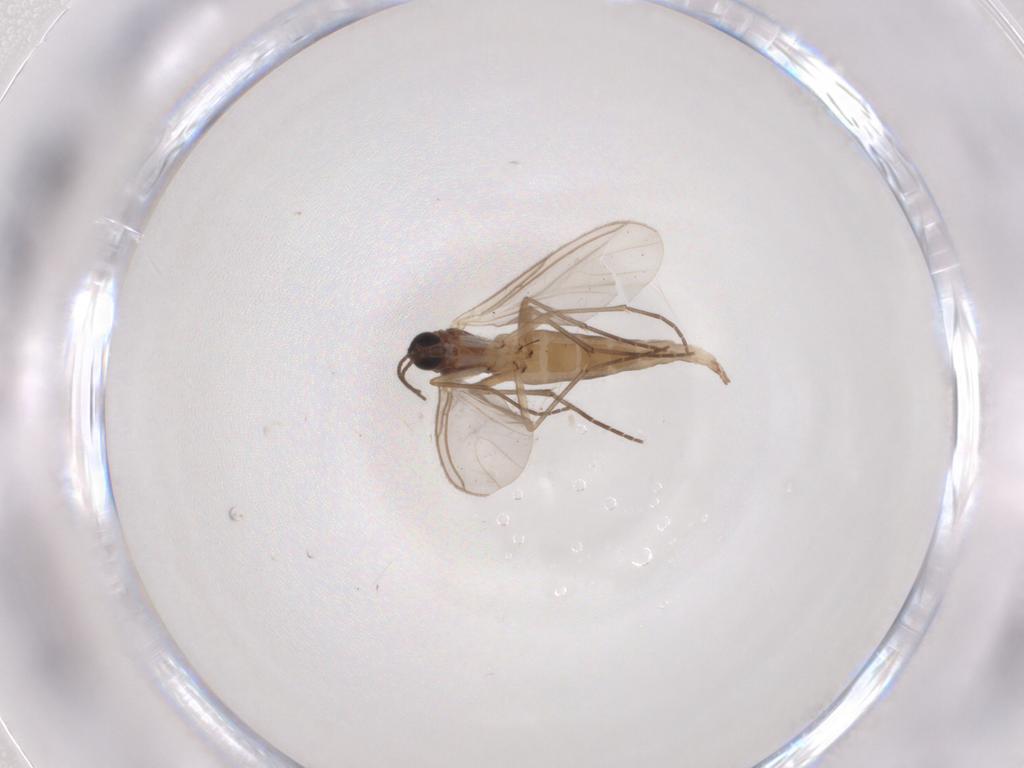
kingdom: Animalia
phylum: Arthropoda
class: Insecta
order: Diptera
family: Sciaridae
